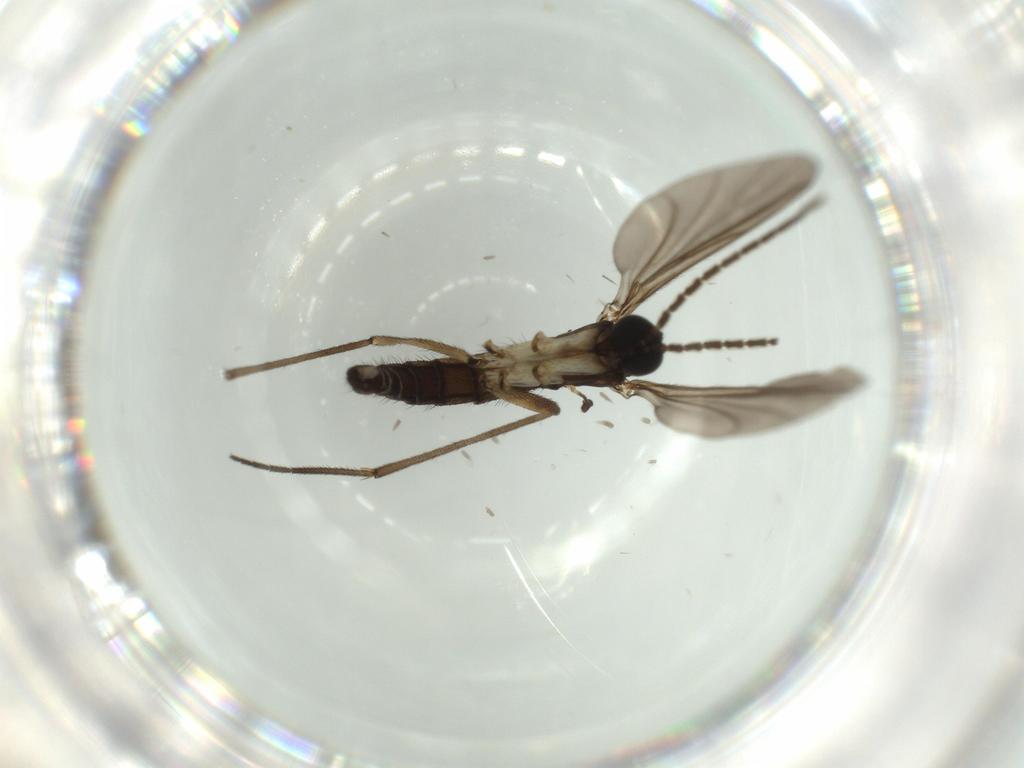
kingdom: Animalia
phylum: Arthropoda
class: Insecta
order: Diptera
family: Sciaridae
